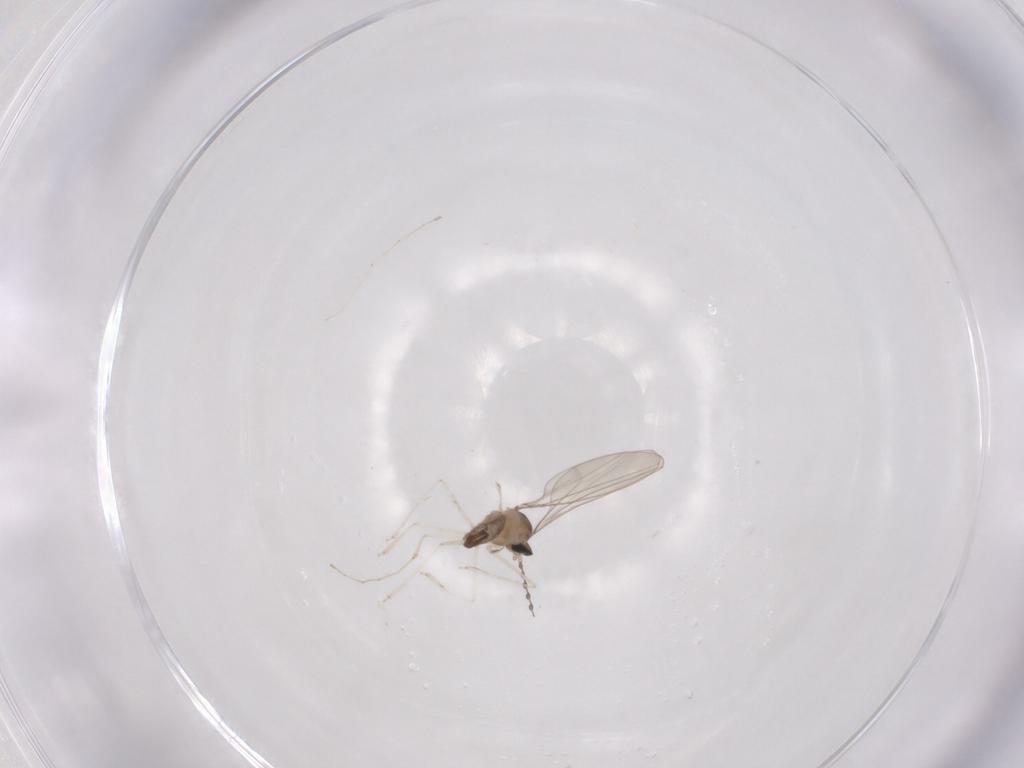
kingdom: Animalia
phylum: Arthropoda
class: Insecta
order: Diptera
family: Cecidomyiidae
